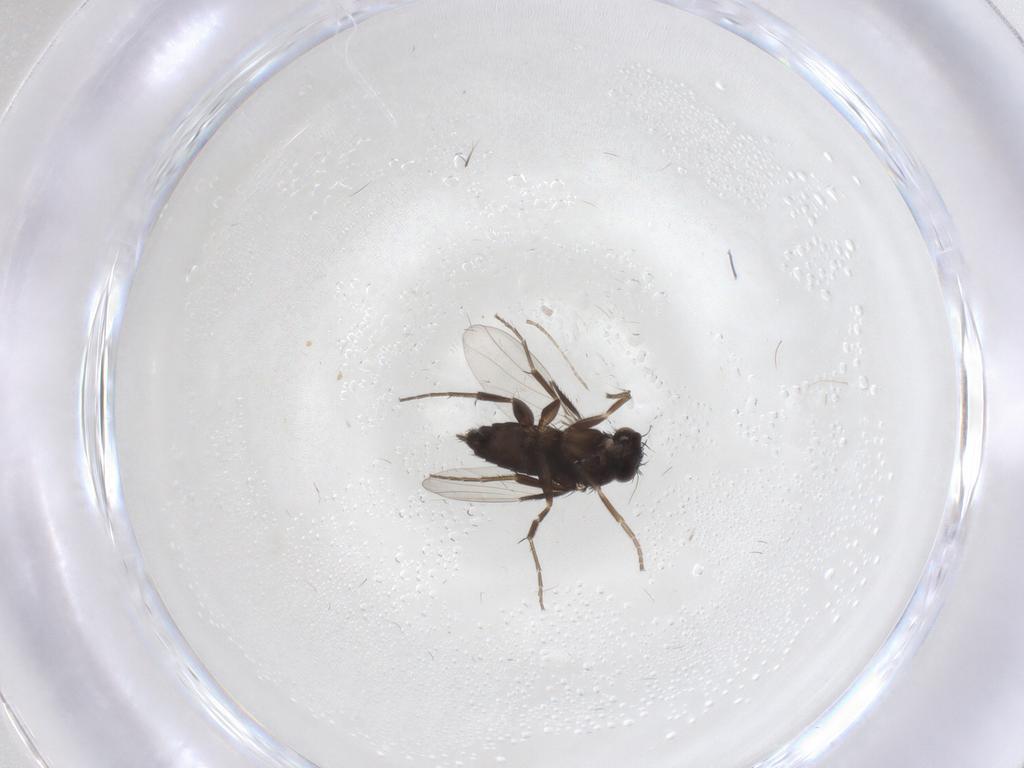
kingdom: Animalia
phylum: Arthropoda
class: Insecta
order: Diptera
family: Phoridae
